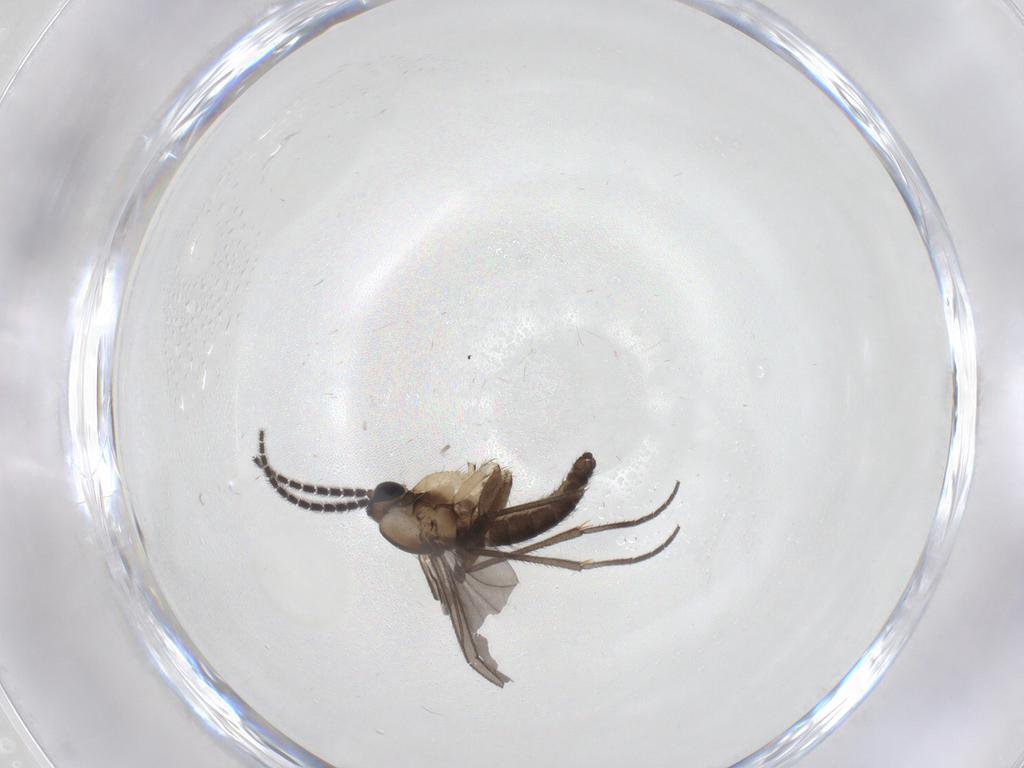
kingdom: Animalia
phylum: Arthropoda
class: Insecta
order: Diptera
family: Sciaridae
